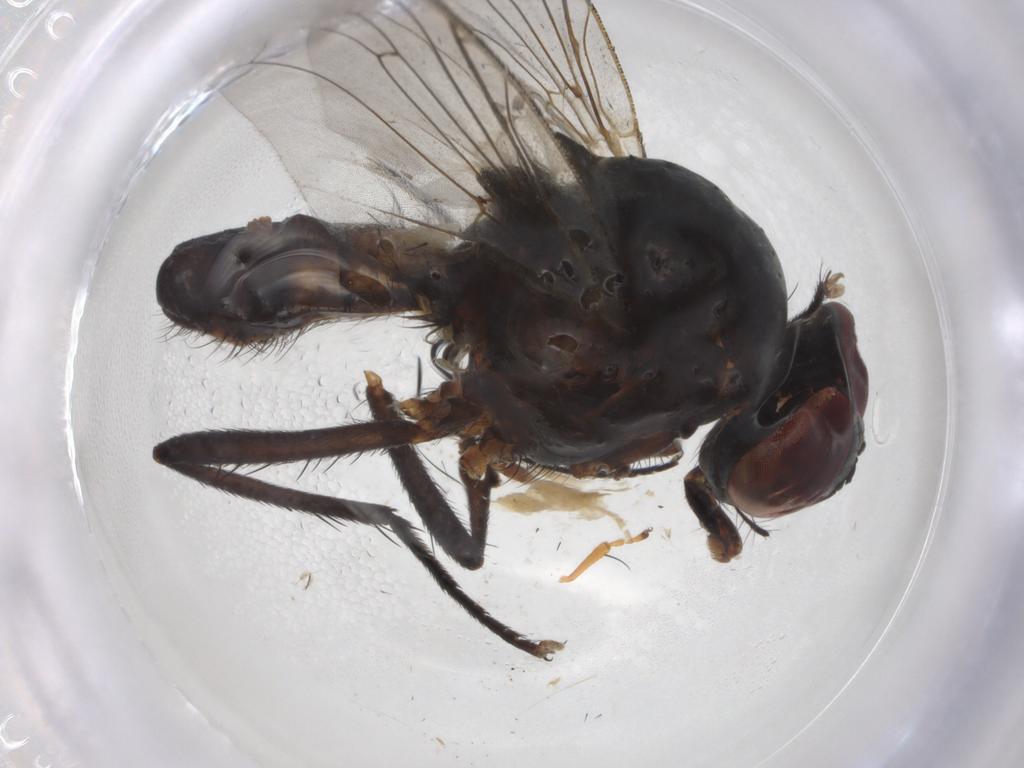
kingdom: Animalia
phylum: Arthropoda
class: Insecta
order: Diptera
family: Anthomyiidae
